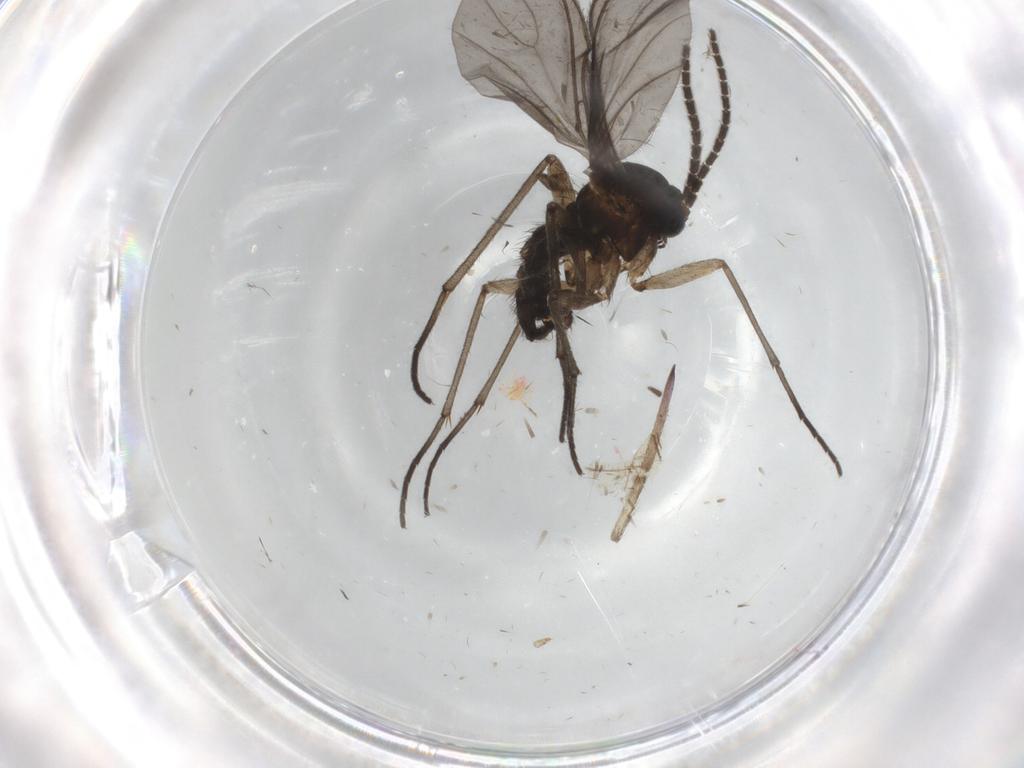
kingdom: Animalia
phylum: Arthropoda
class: Insecta
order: Diptera
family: Sciaridae
